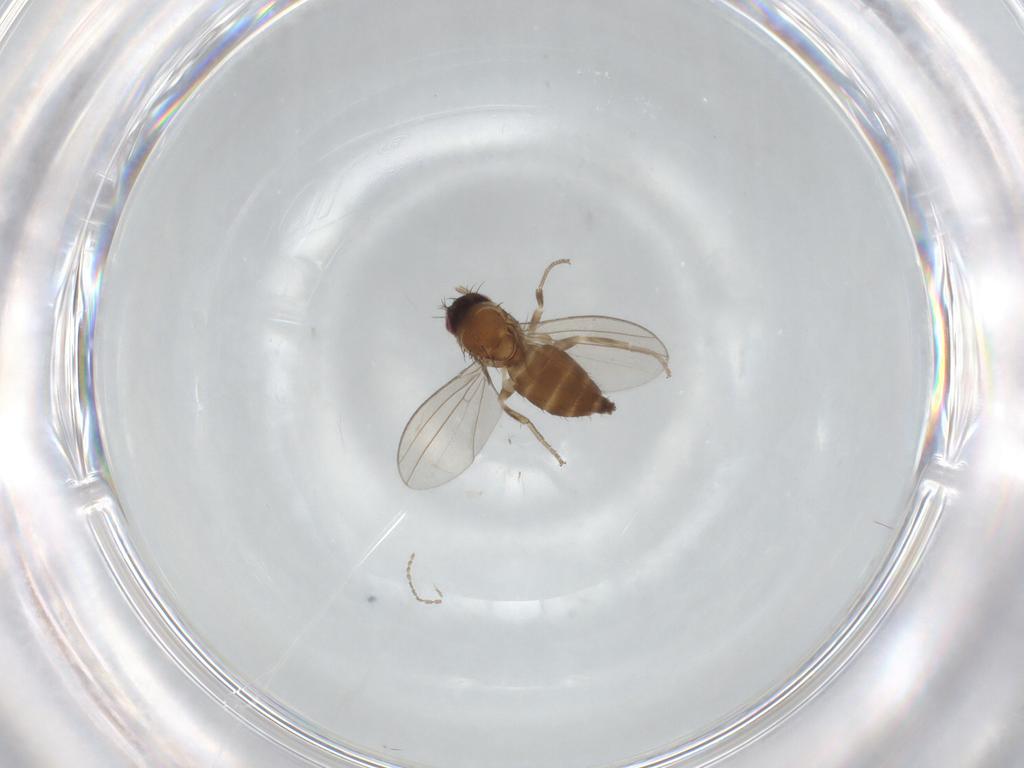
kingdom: Animalia
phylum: Arthropoda
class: Insecta
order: Diptera
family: Milichiidae
